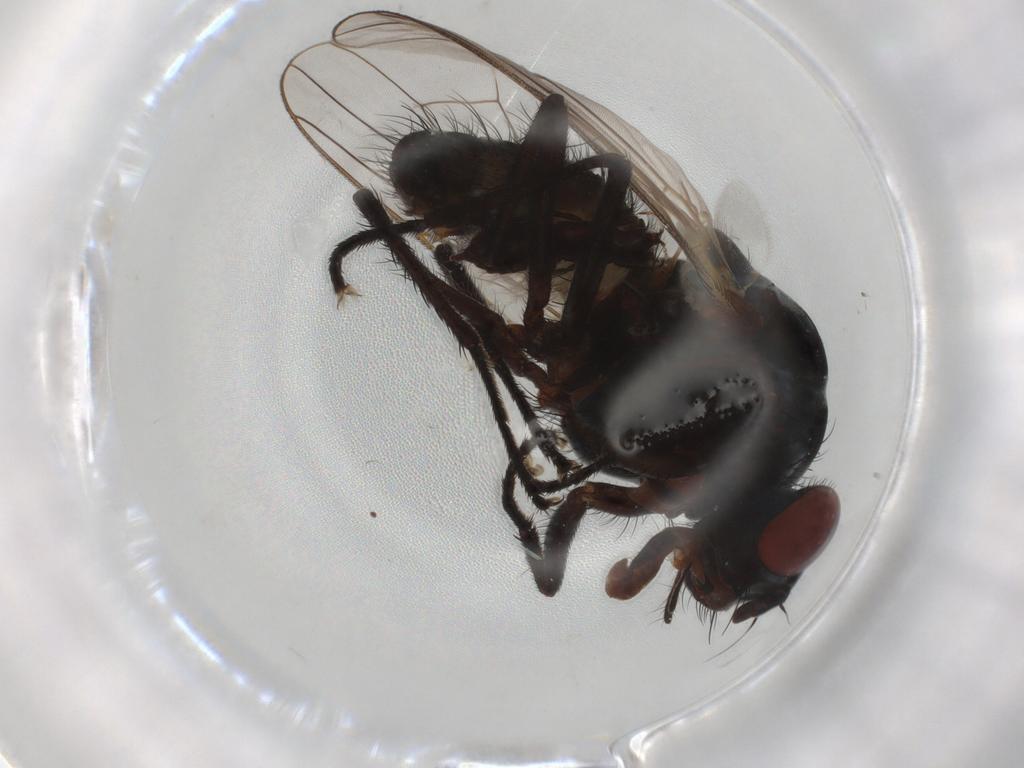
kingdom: Animalia
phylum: Arthropoda
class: Insecta
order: Diptera
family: Anthomyiidae
